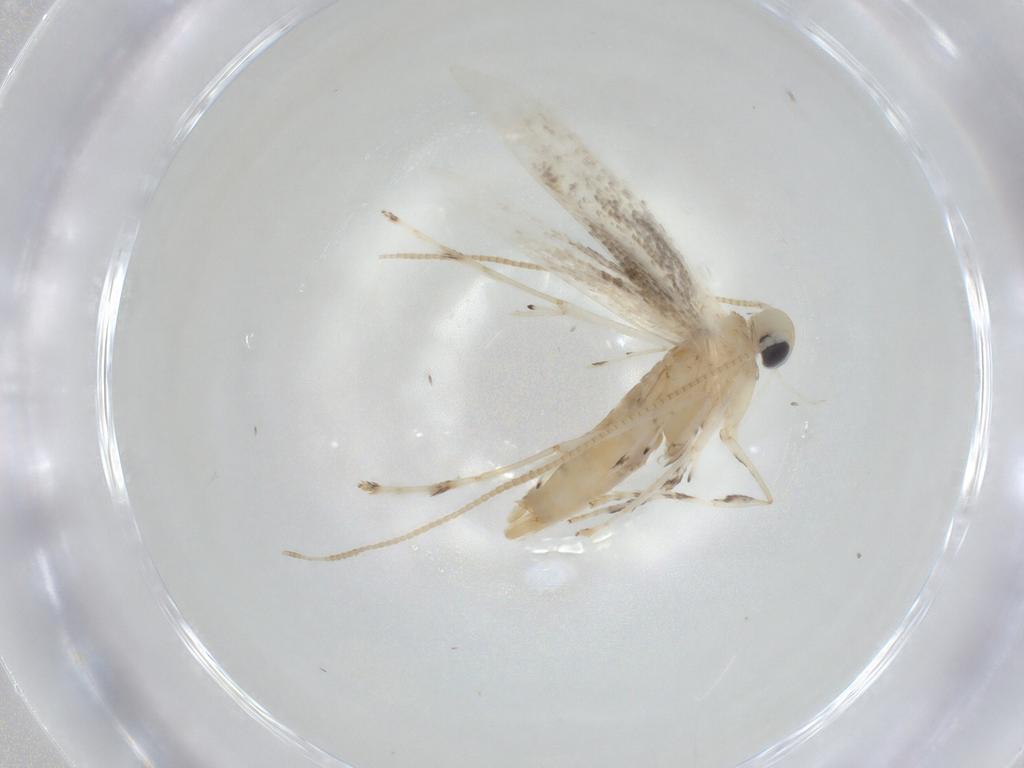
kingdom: Animalia
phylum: Arthropoda
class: Insecta
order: Lepidoptera
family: Gracillariidae
